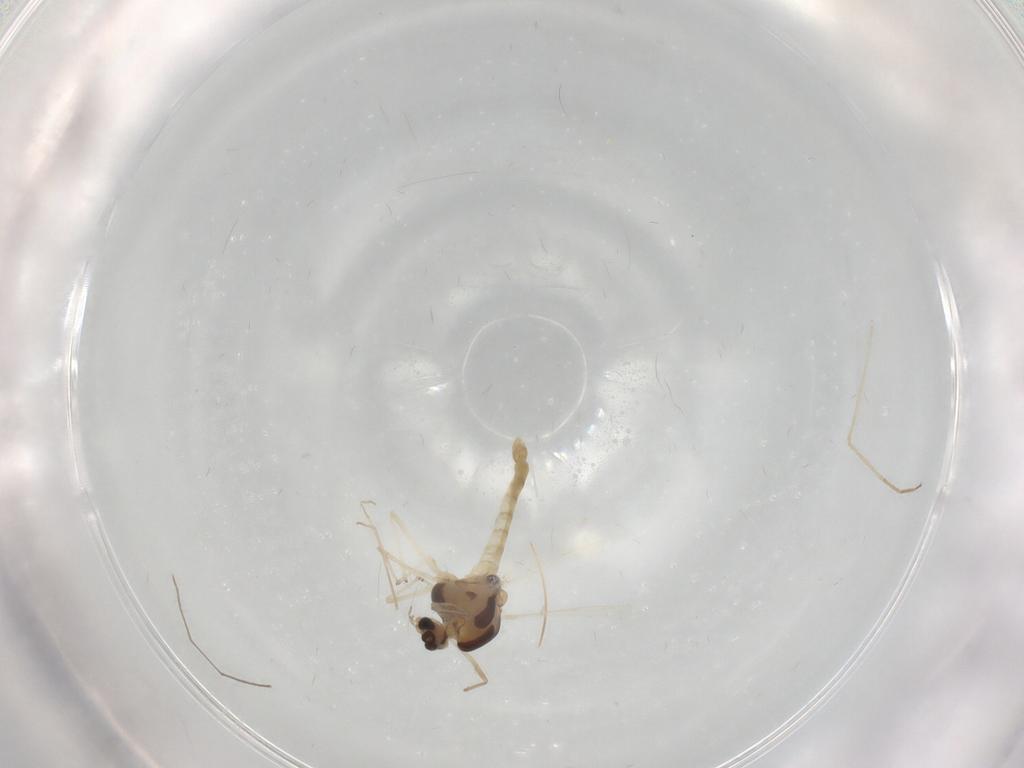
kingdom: Animalia
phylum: Arthropoda
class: Insecta
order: Diptera
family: Chironomidae
